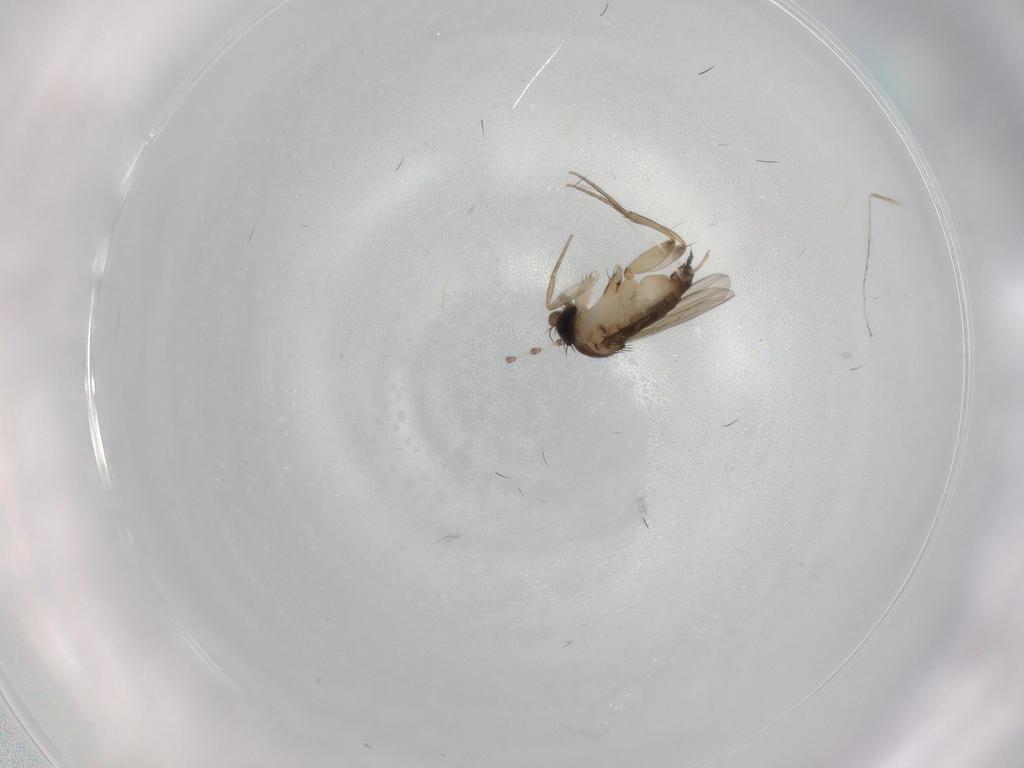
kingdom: Animalia
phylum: Arthropoda
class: Insecta
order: Diptera
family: Phoridae
